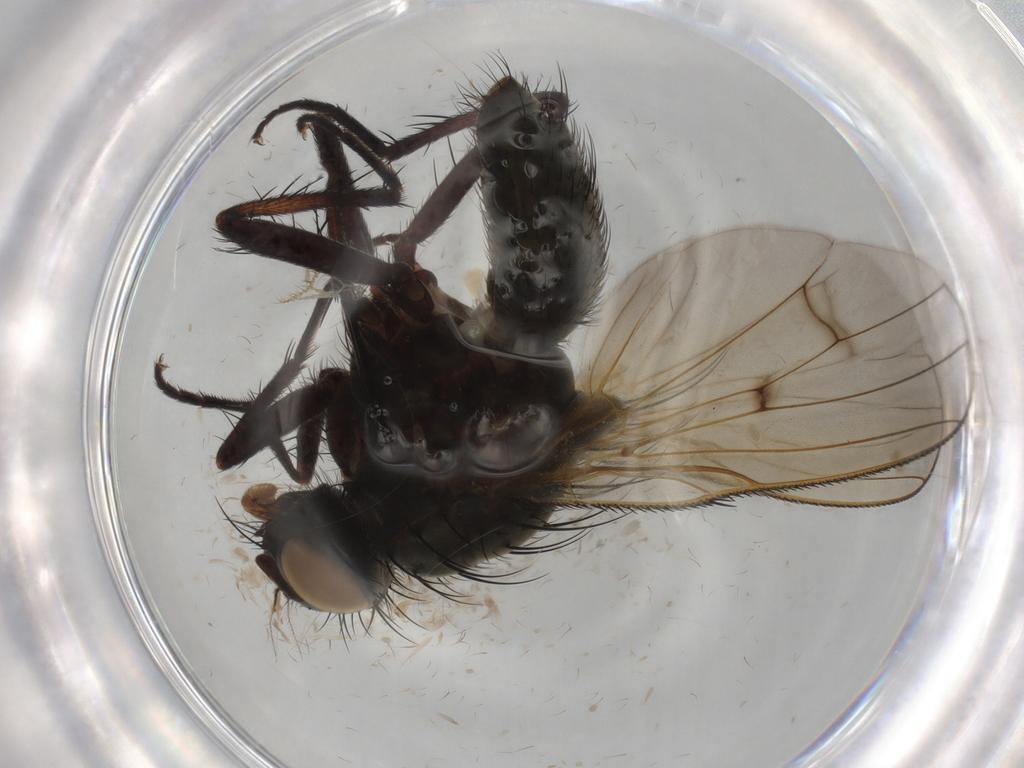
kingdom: Animalia
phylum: Arthropoda
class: Insecta
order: Diptera
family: Anthomyiidae
